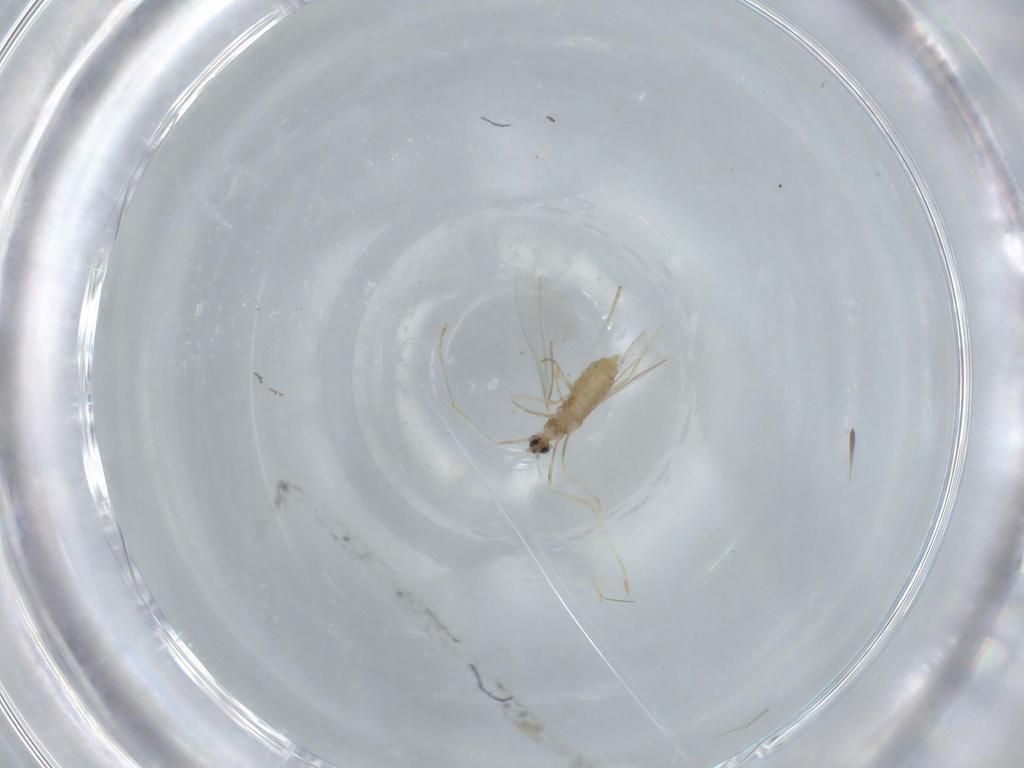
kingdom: Animalia
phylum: Arthropoda
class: Insecta
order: Diptera
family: Cecidomyiidae
